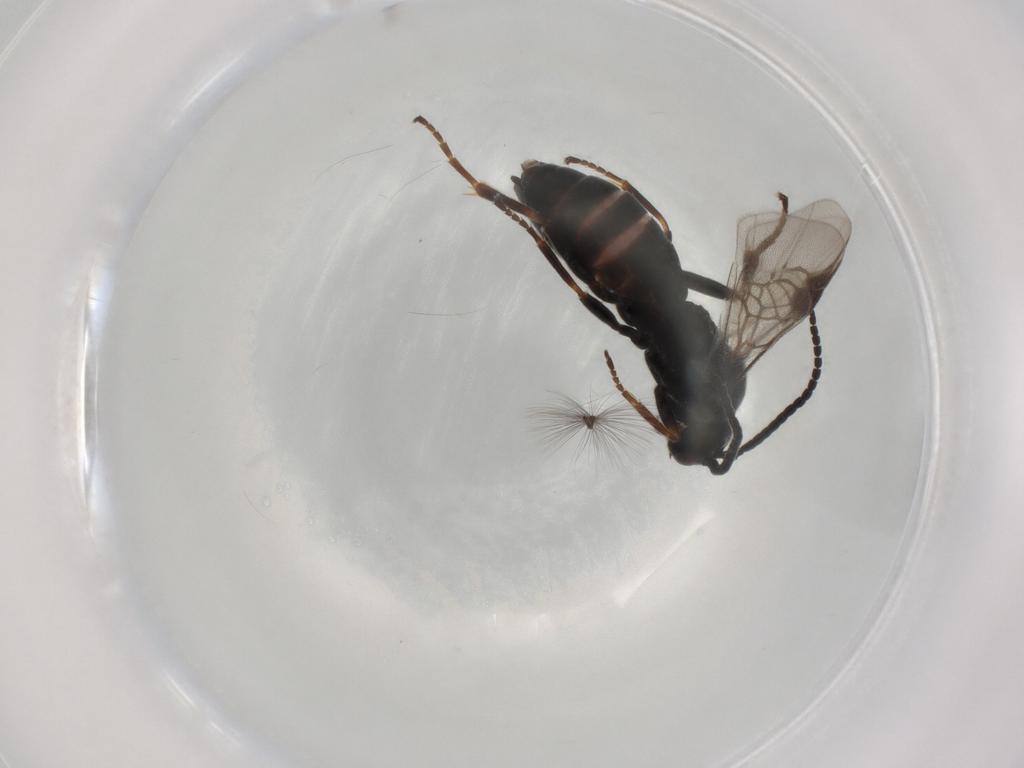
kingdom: Animalia
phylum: Arthropoda
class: Insecta
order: Hymenoptera
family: Braconidae
